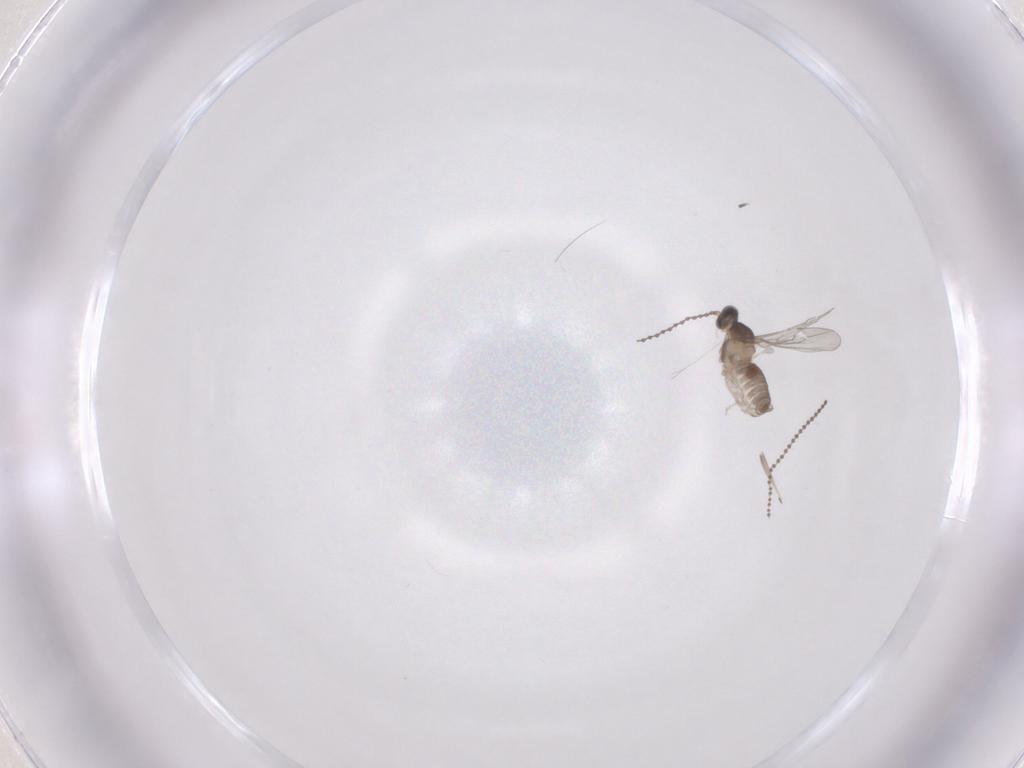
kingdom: Animalia
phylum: Arthropoda
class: Insecta
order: Diptera
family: Cecidomyiidae
